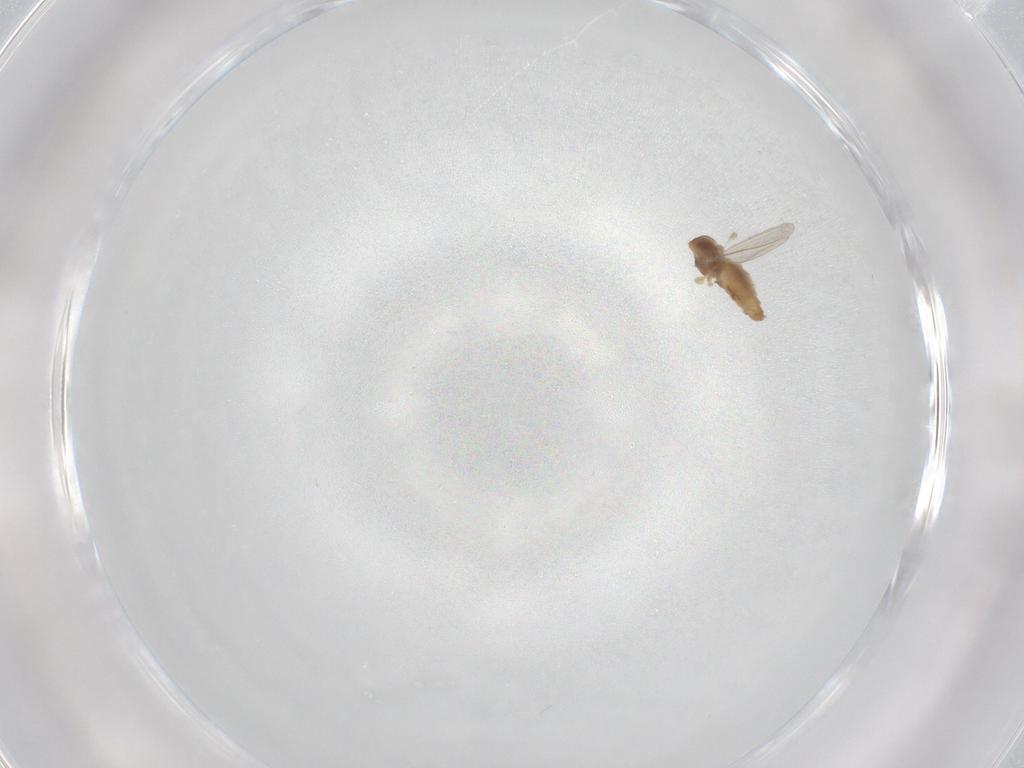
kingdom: Animalia
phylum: Arthropoda
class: Insecta
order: Diptera
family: Cecidomyiidae
